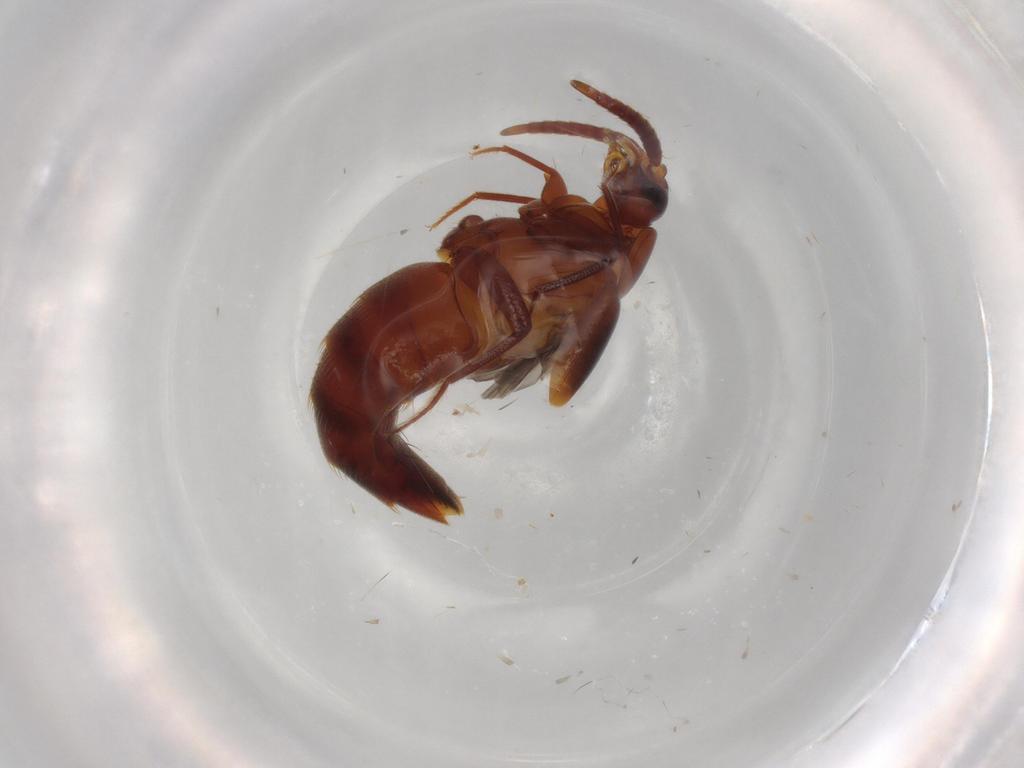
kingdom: Animalia
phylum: Arthropoda
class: Insecta
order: Coleoptera
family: Staphylinidae
